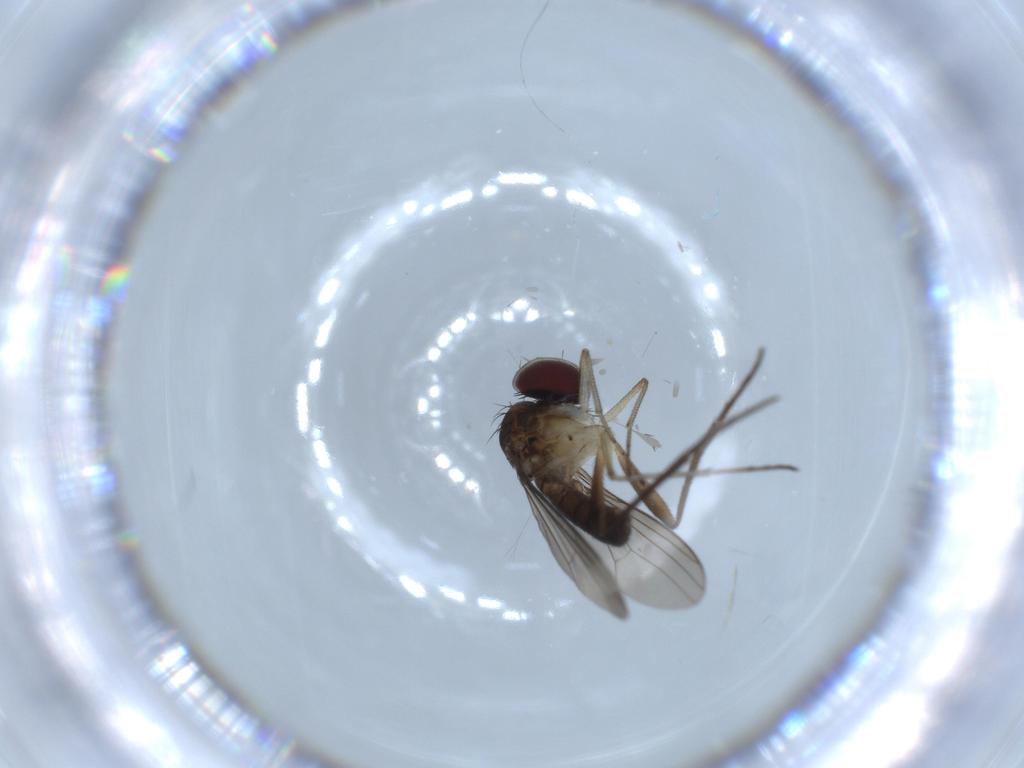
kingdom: Animalia
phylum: Arthropoda
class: Insecta
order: Diptera
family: Dolichopodidae
